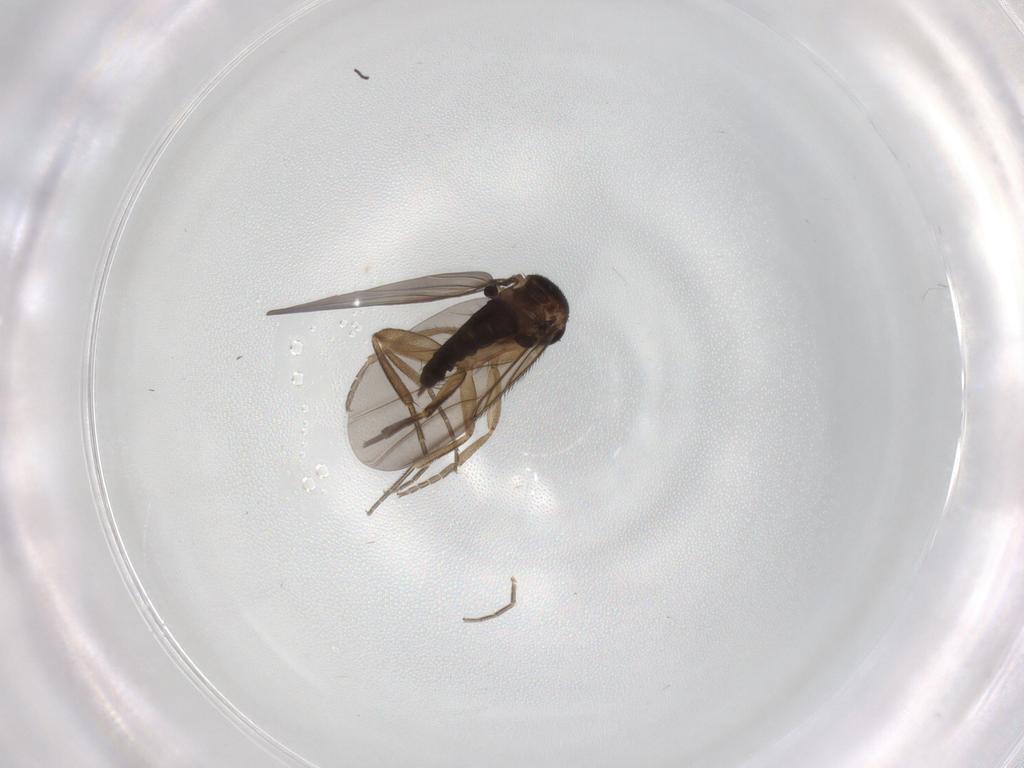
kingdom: Animalia
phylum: Arthropoda
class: Insecta
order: Diptera
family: Phoridae
